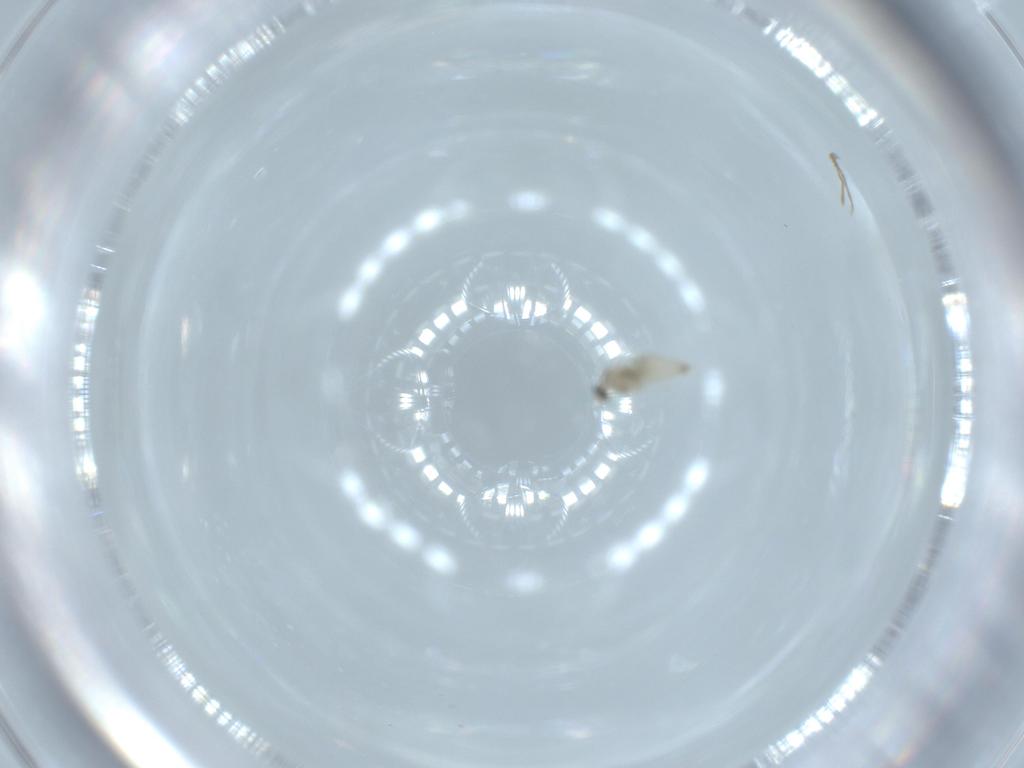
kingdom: Animalia
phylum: Arthropoda
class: Insecta
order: Diptera
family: Cecidomyiidae
